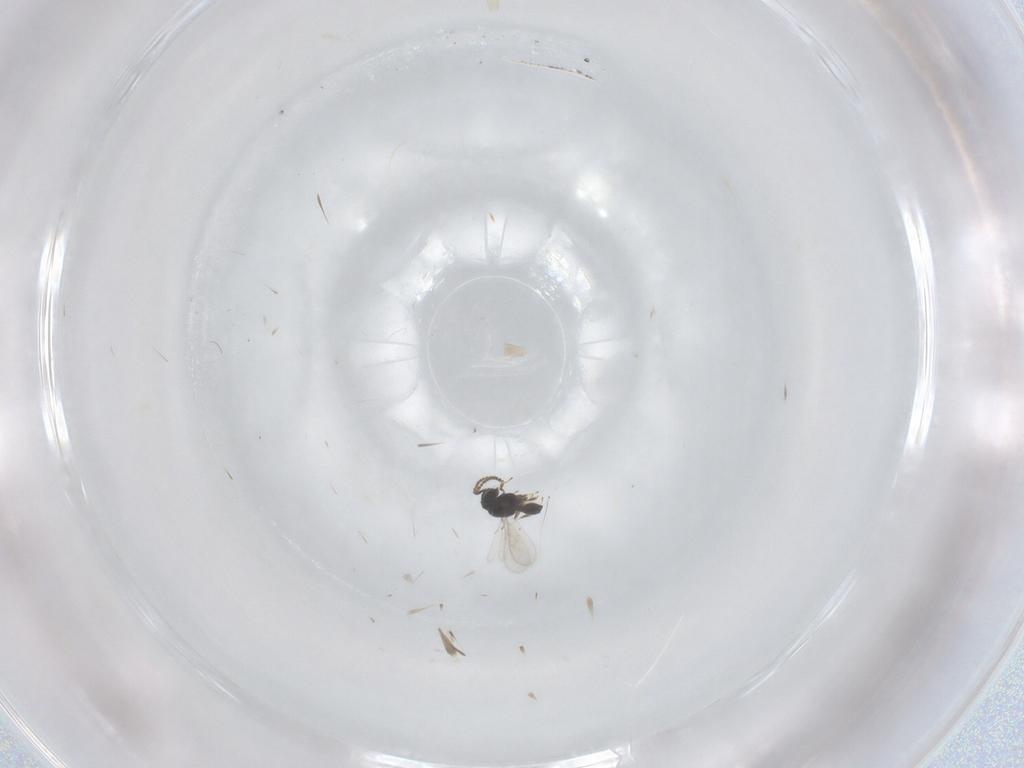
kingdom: Animalia
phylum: Arthropoda
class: Insecta
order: Hymenoptera
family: Scelionidae
